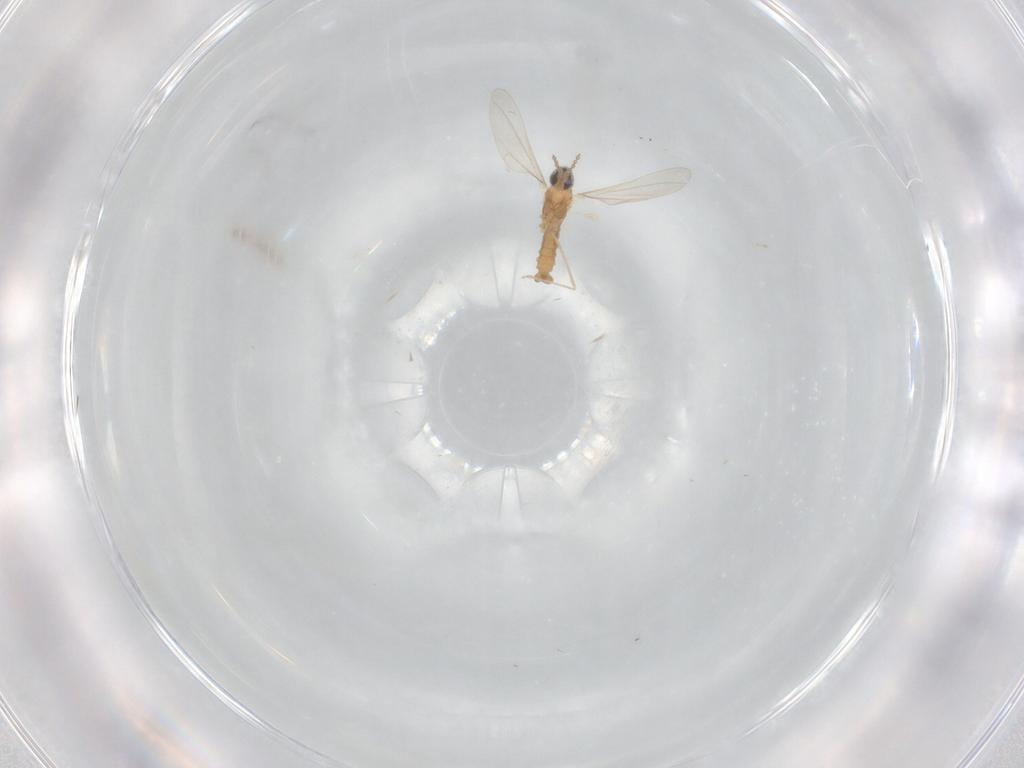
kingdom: Animalia
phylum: Arthropoda
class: Insecta
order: Diptera
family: Cecidomyiidae
